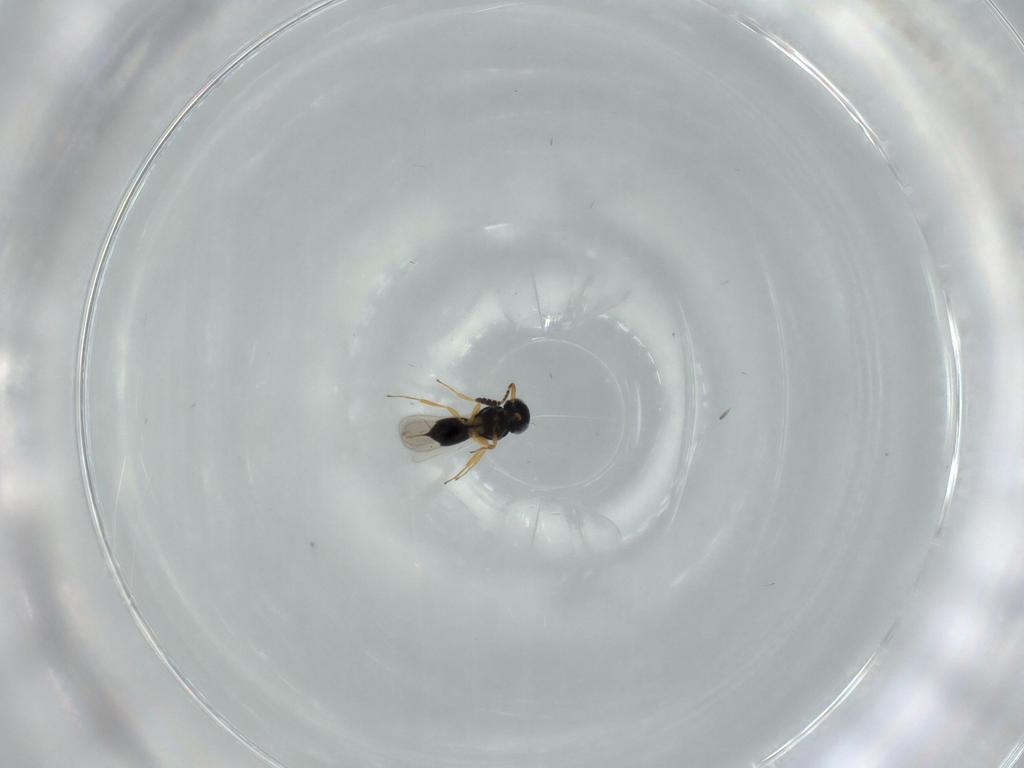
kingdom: Animalia
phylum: Arthropoda
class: Insecta
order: Hymenoptera
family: Scelionidae
